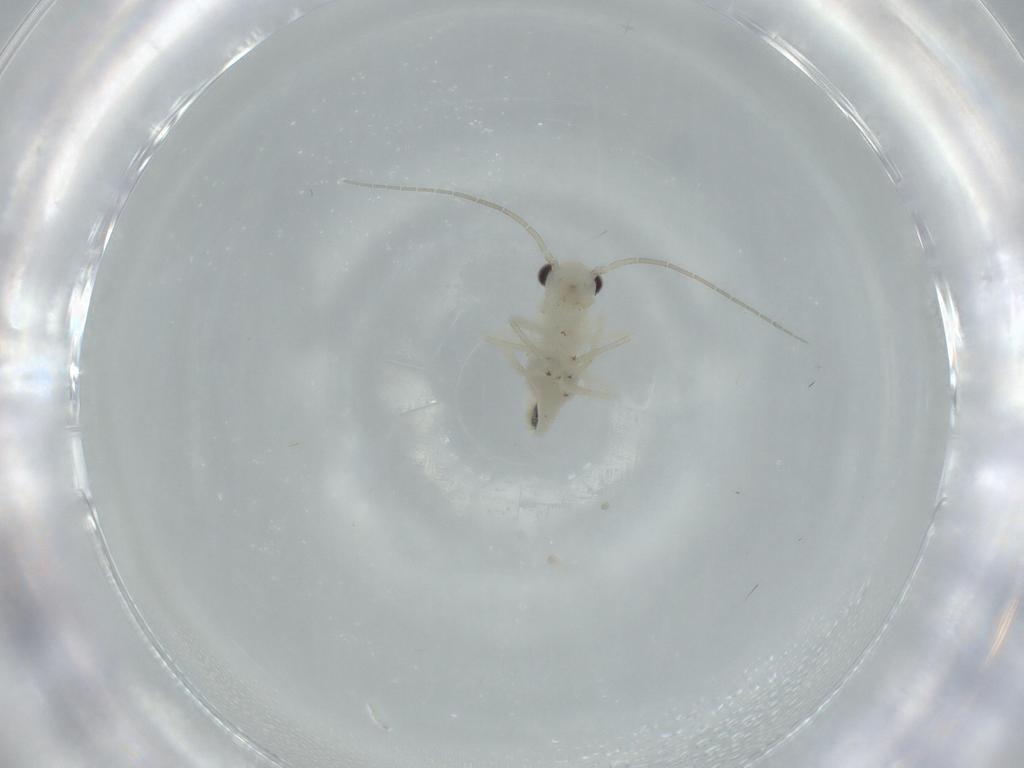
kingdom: Animalia
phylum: Arthropoda
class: Insecta
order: Psocodea
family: Caeciliusidae
